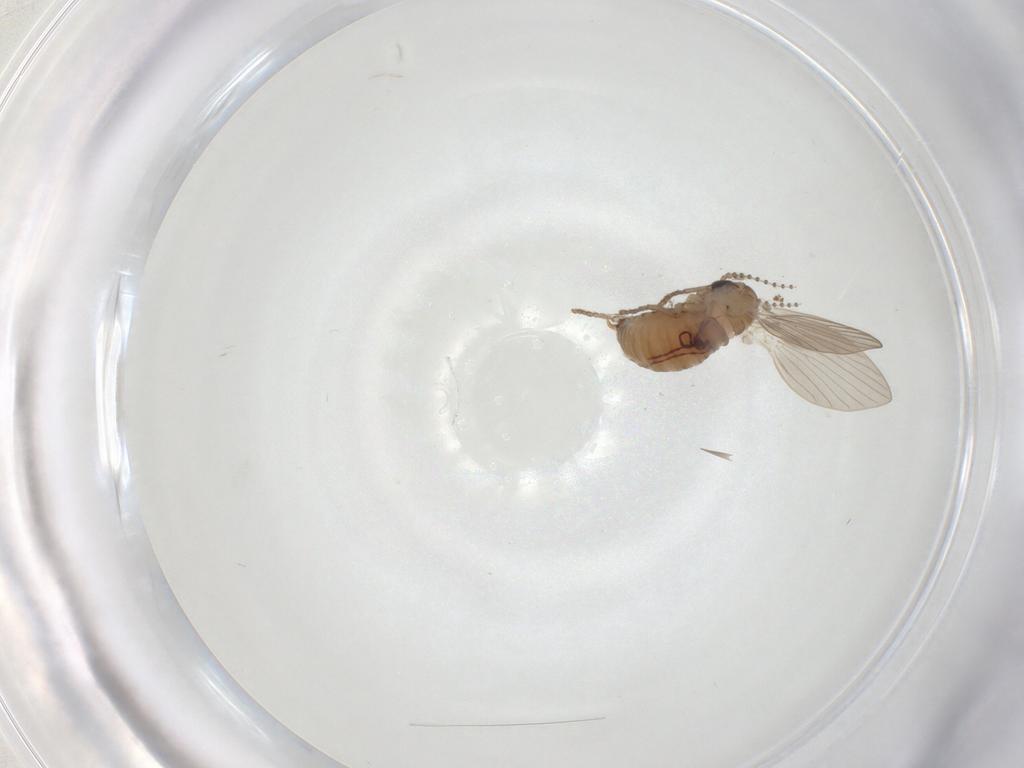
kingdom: Animalia
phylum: Arthropoda
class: Insecta
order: Diptera
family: Psychodidae
